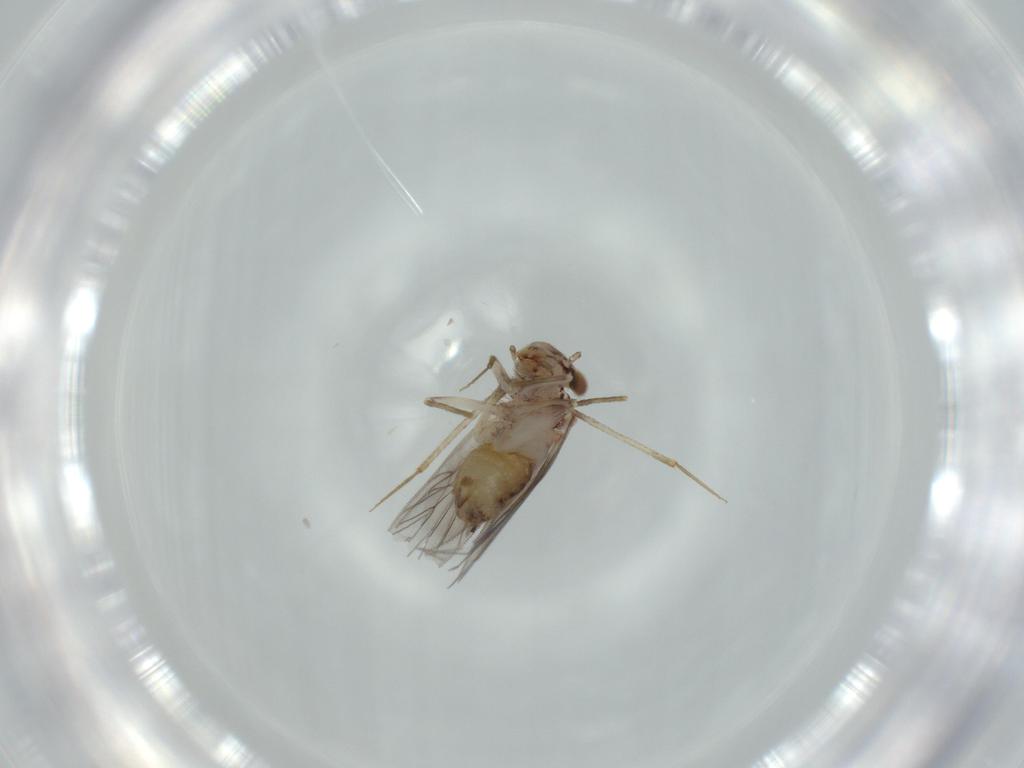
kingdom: Animalia
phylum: Arthropoda
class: Insecta
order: Psocodea
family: Lepidopsocidae
